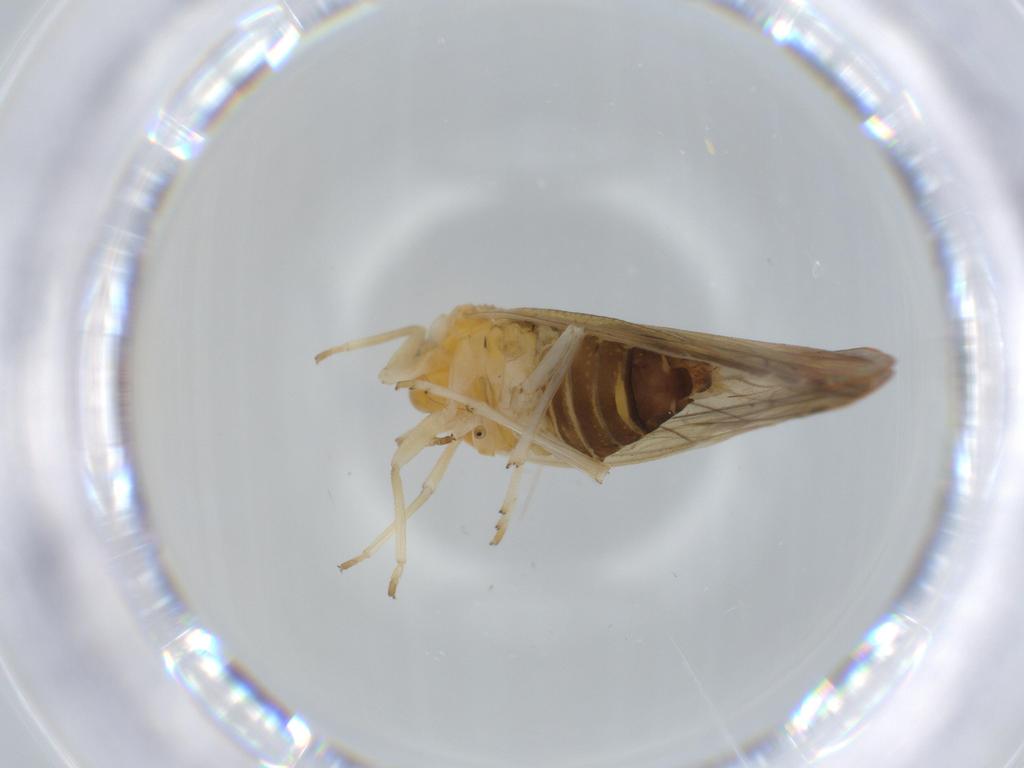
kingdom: Animalia
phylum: Arthropoda
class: Insecta
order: Hemiptera
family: Derbidae
